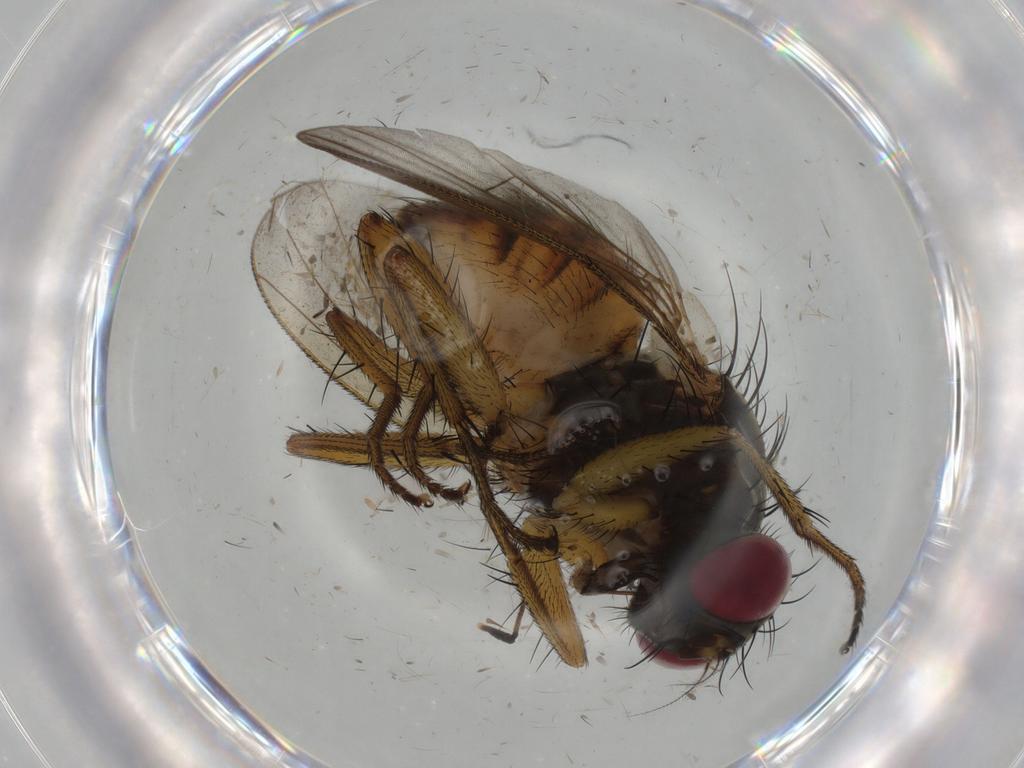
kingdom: Animalia
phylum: Arthropoda
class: Insecta
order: Diptera
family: Muscidae
